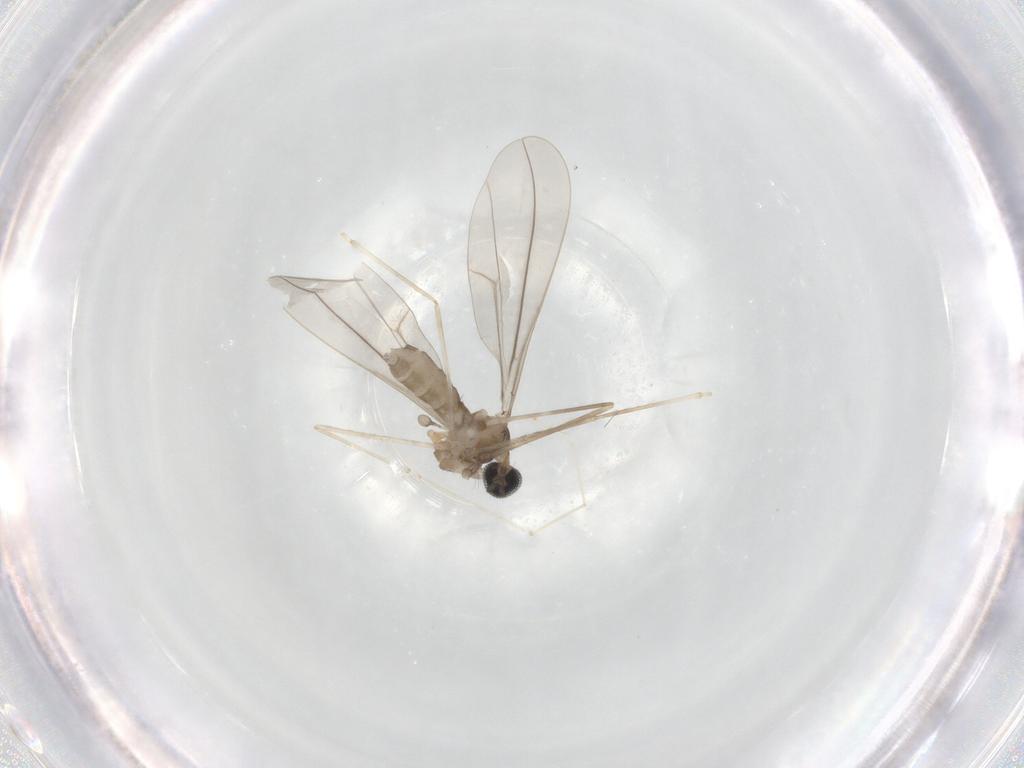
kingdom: Animalia
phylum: Arthropoda
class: Insecta
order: Diptera
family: Cecidomyiidae
